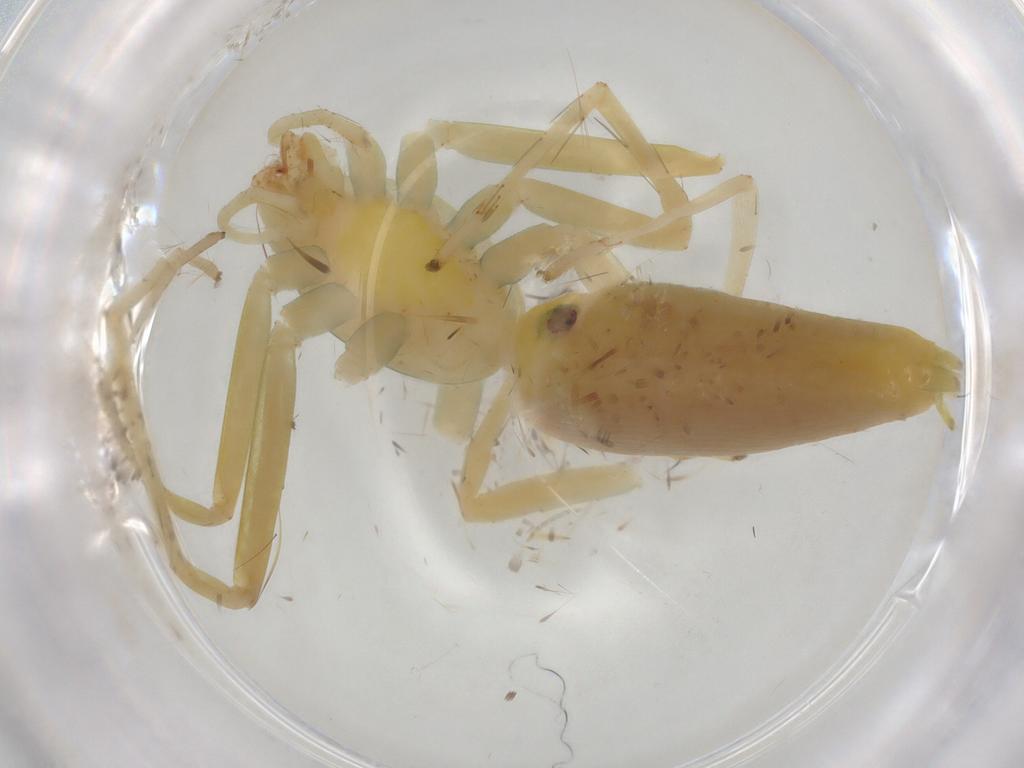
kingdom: Animalia
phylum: Arthropoda
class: Arachnida
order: Araneae
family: Clubionidae
